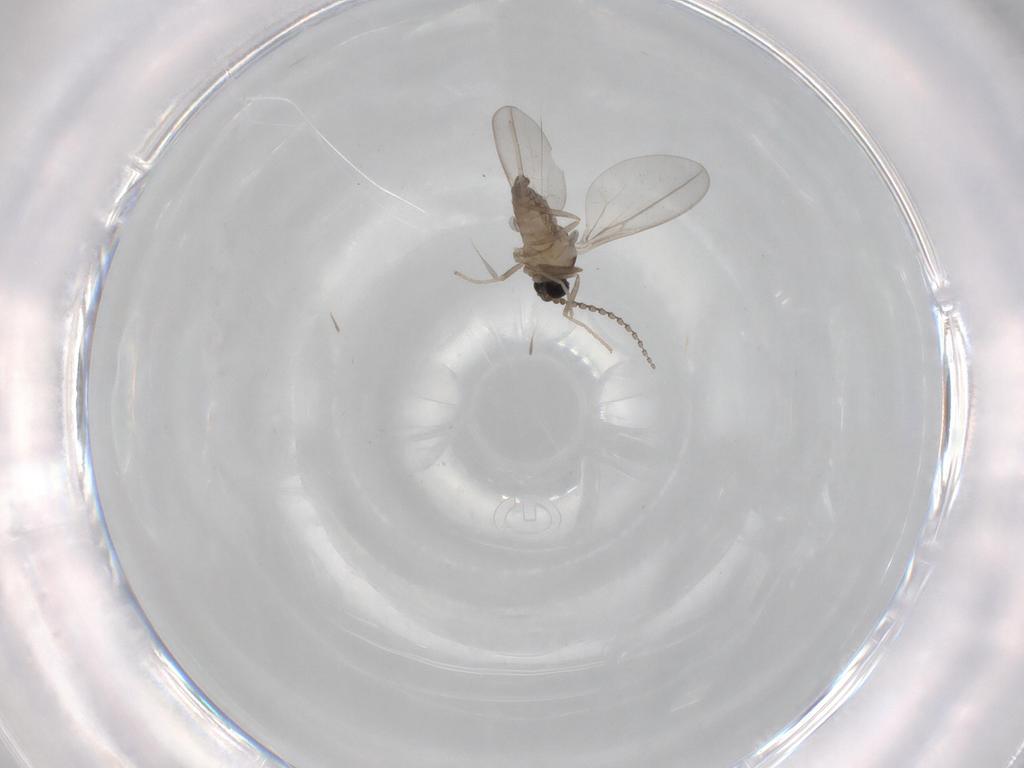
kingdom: Animalia
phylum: Arthropoda
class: Insecta
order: Diptera
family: Cecidomyiidae
